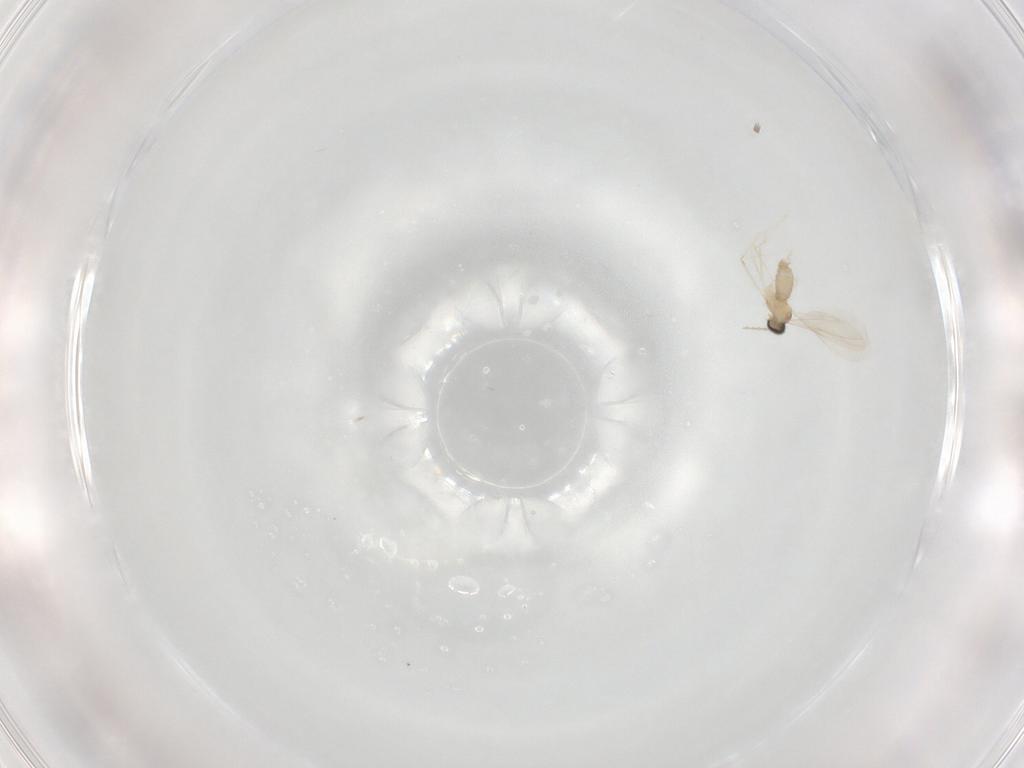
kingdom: Animalia
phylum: Arthropoda
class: Insecta
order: Diptera
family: Cecidomyiidae
